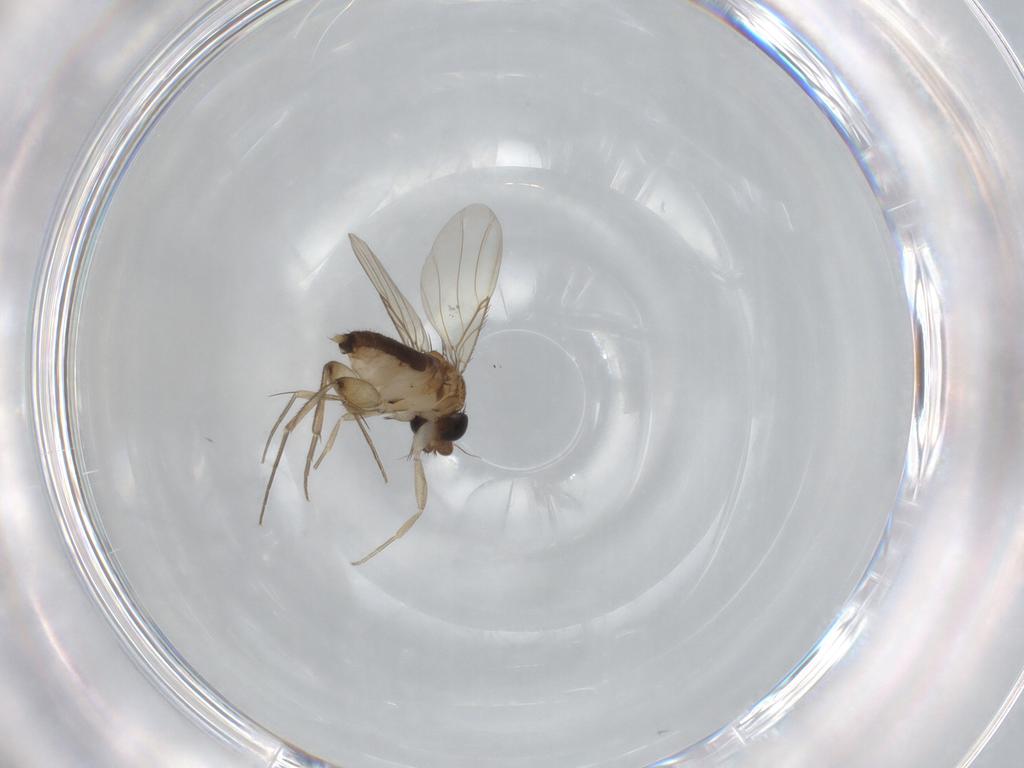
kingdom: Animalia
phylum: Arthropoda
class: Insecta
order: Diptera
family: Phoridae
